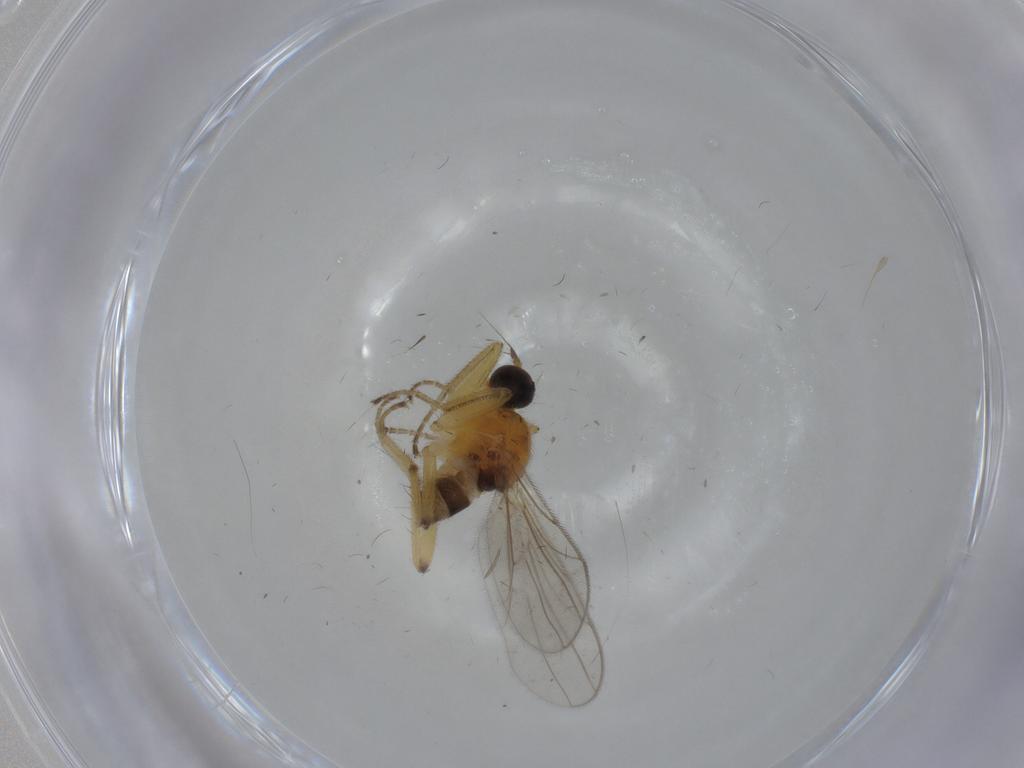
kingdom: Animalia
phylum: Arthropoda
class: Insecta
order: Diptera
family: Hybotidae
